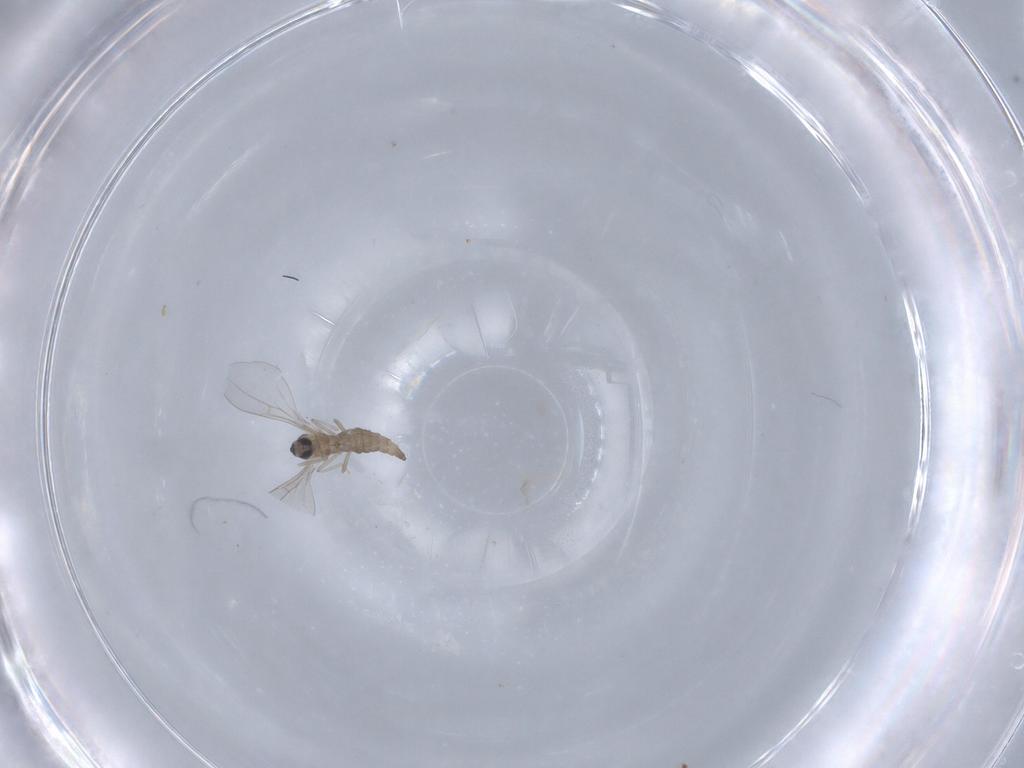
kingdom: Animalia
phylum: Arthropoda
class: Insecta
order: Diptera
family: Cecidomyiidae
